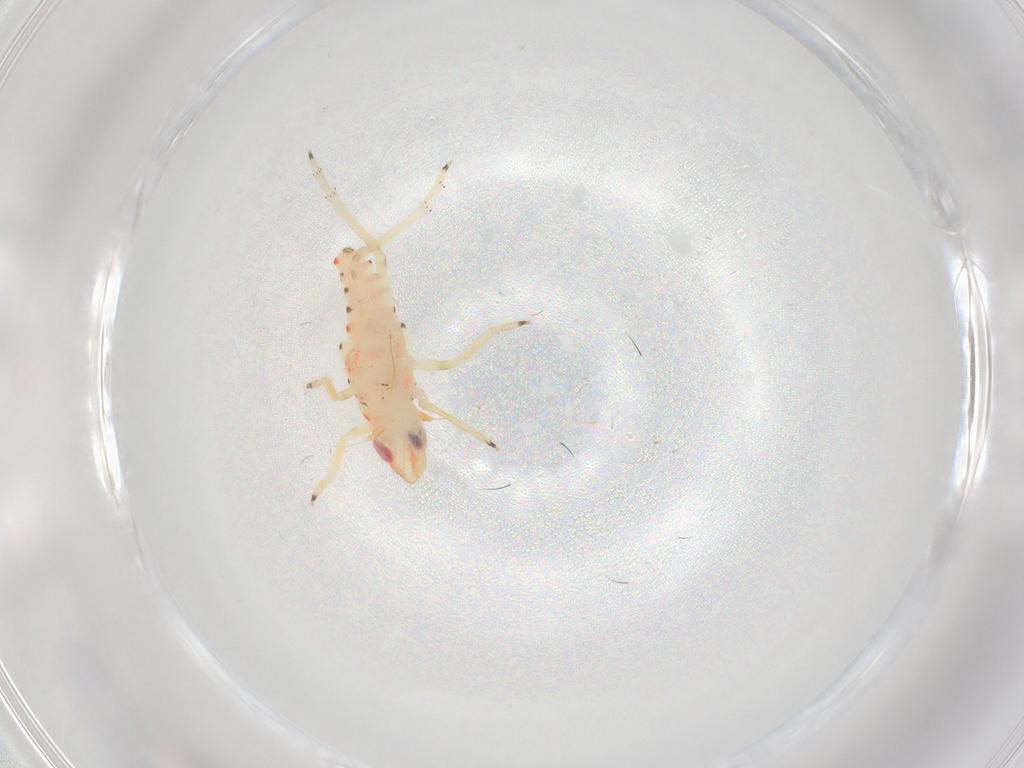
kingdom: Animalia
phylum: Arthropoda
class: Insecta
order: Hemiptera
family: Tropiduchidae
